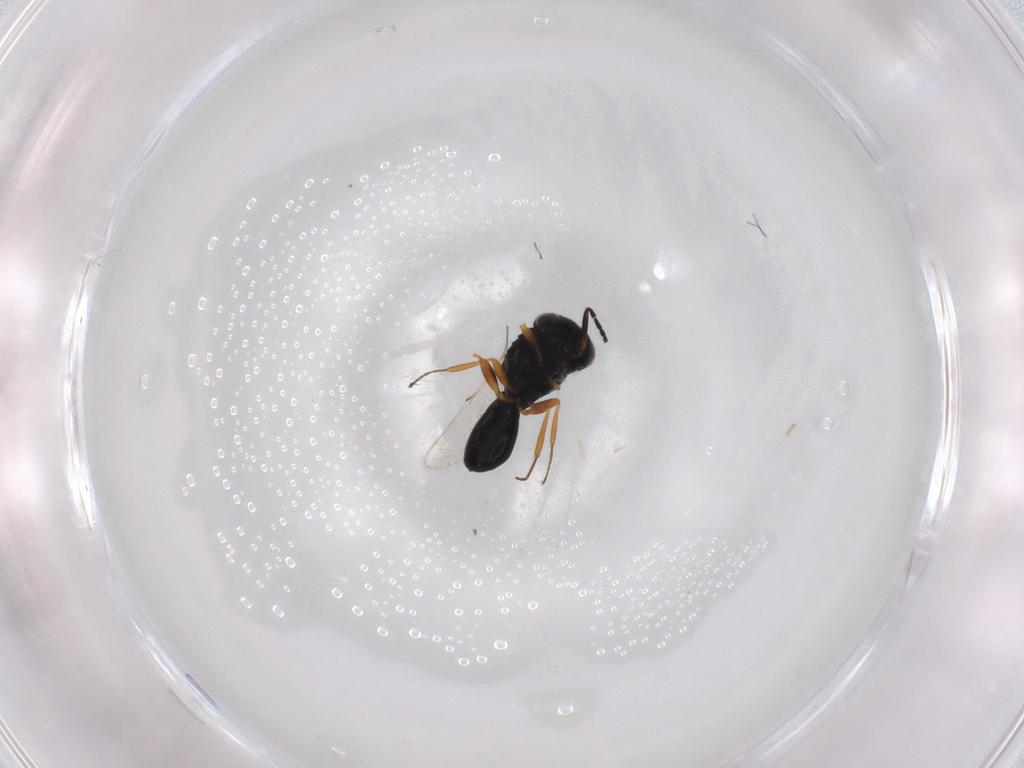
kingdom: Animalia
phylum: Arthropoda
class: Insecta
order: Hymenoptera
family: Scelionidae
